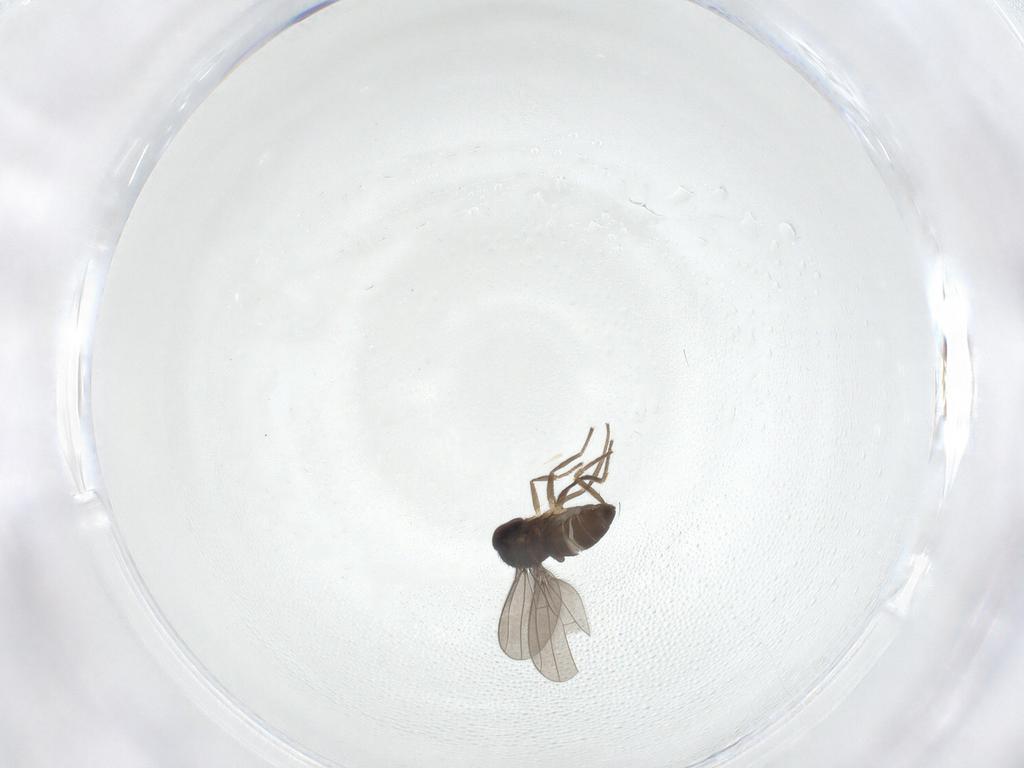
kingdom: Animalia
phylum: Arthropoda
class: Insecta
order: Diptera
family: Dolichopodidae
